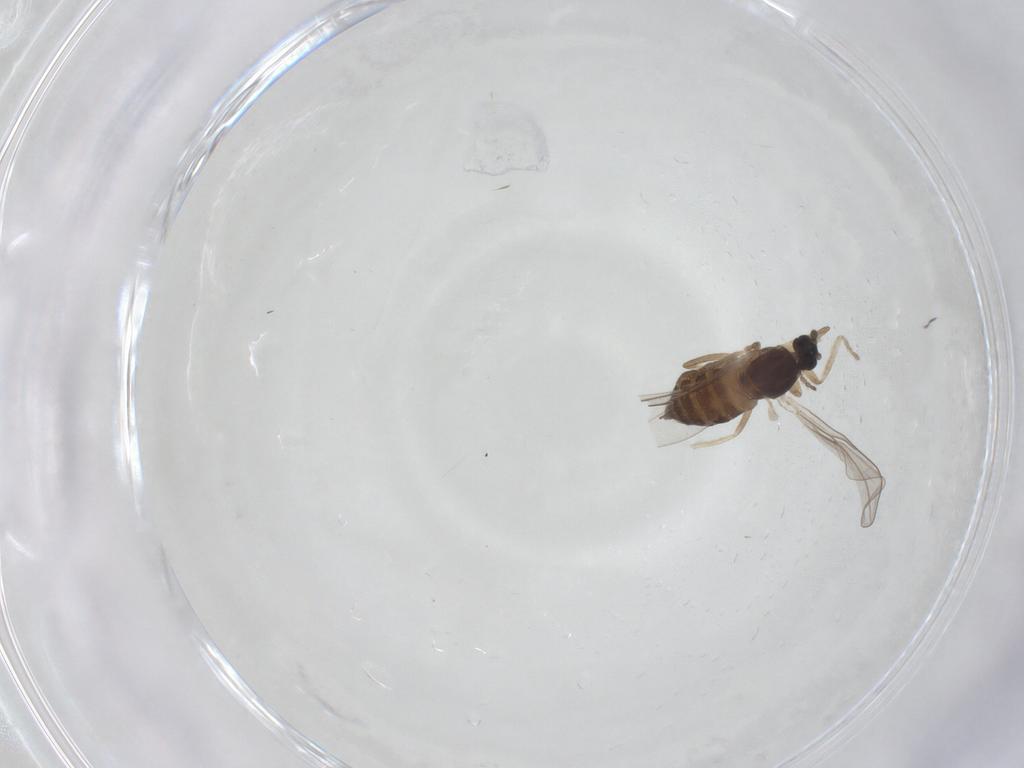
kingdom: Animalia
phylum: Arthropoda
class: Insecta
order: Diptera
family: Cecidomyiidae
